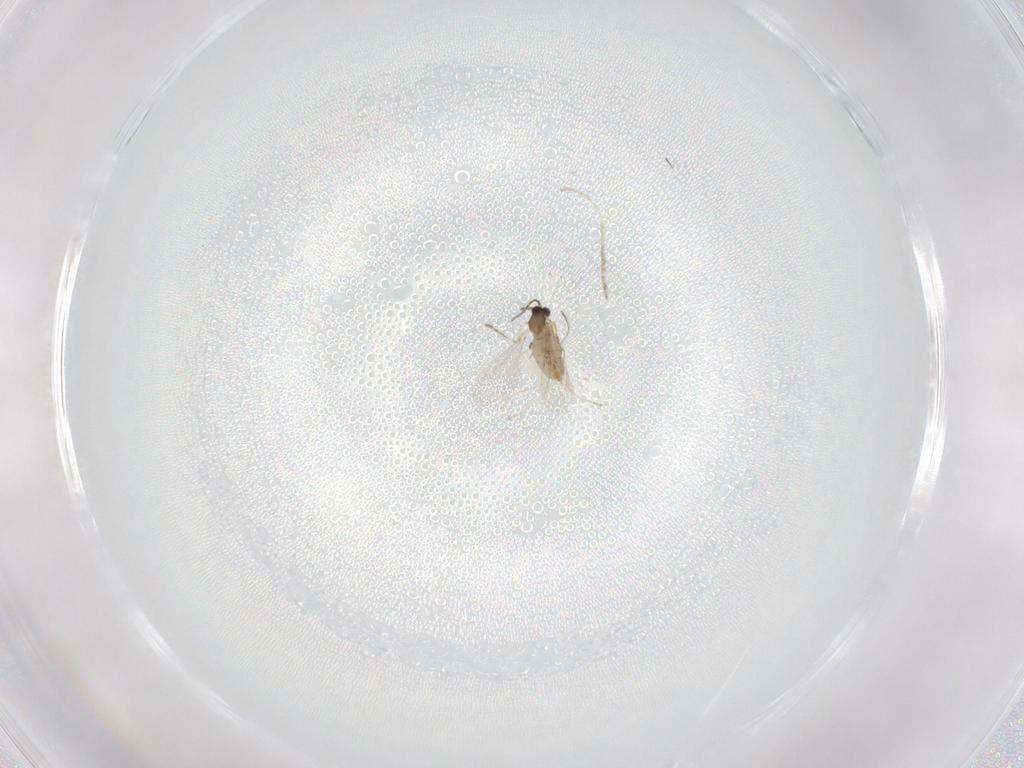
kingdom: Animalia
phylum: Arthropoda
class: Insecta
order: Diptera
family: Cecidomyiidae
